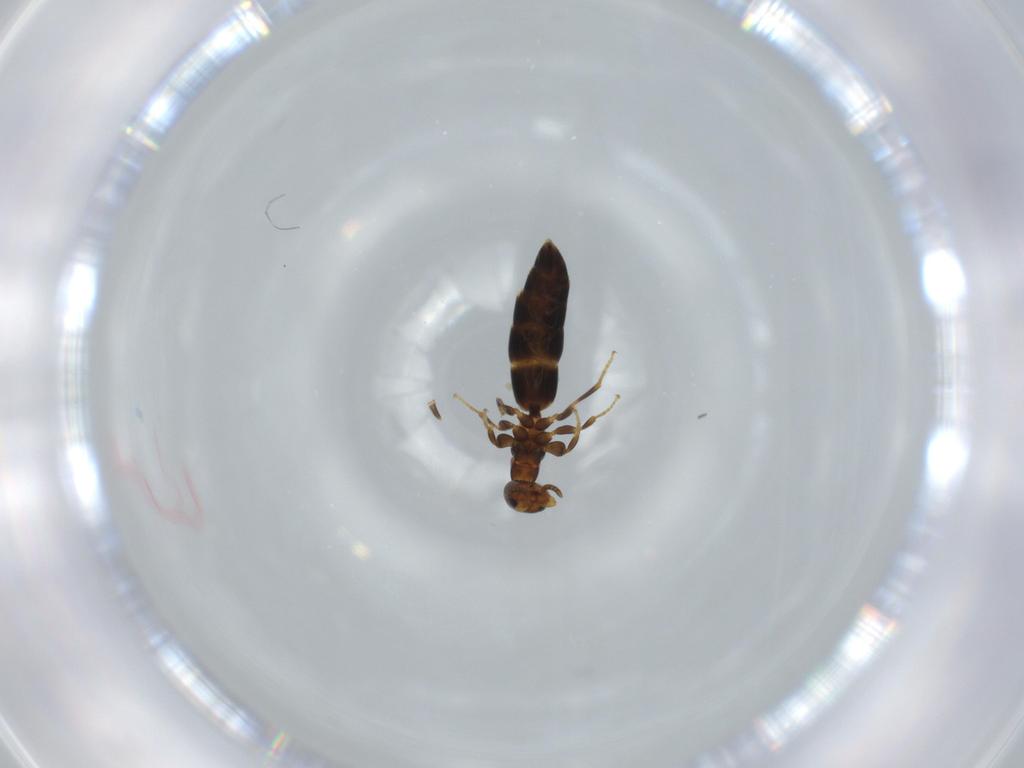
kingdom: Animalia
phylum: Arthropoda
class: Insecta
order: Hymenoptera
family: Bethylidae
